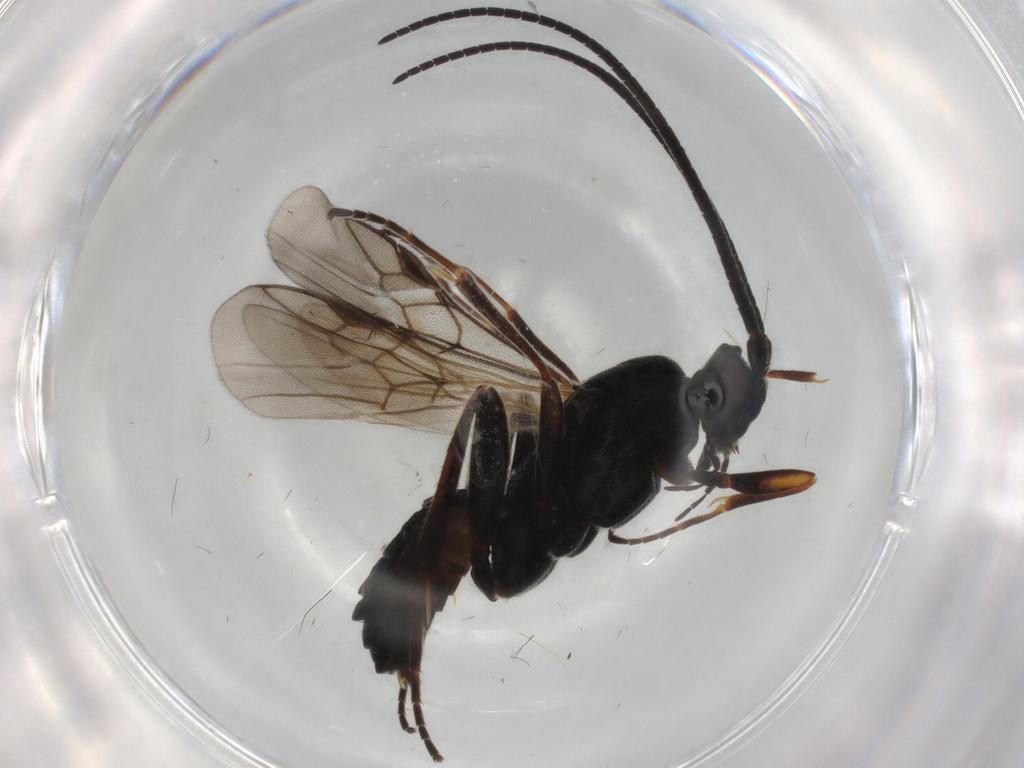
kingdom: Animalia
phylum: Arthropoda
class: Insecta
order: Hymenoptera
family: Braconidae
